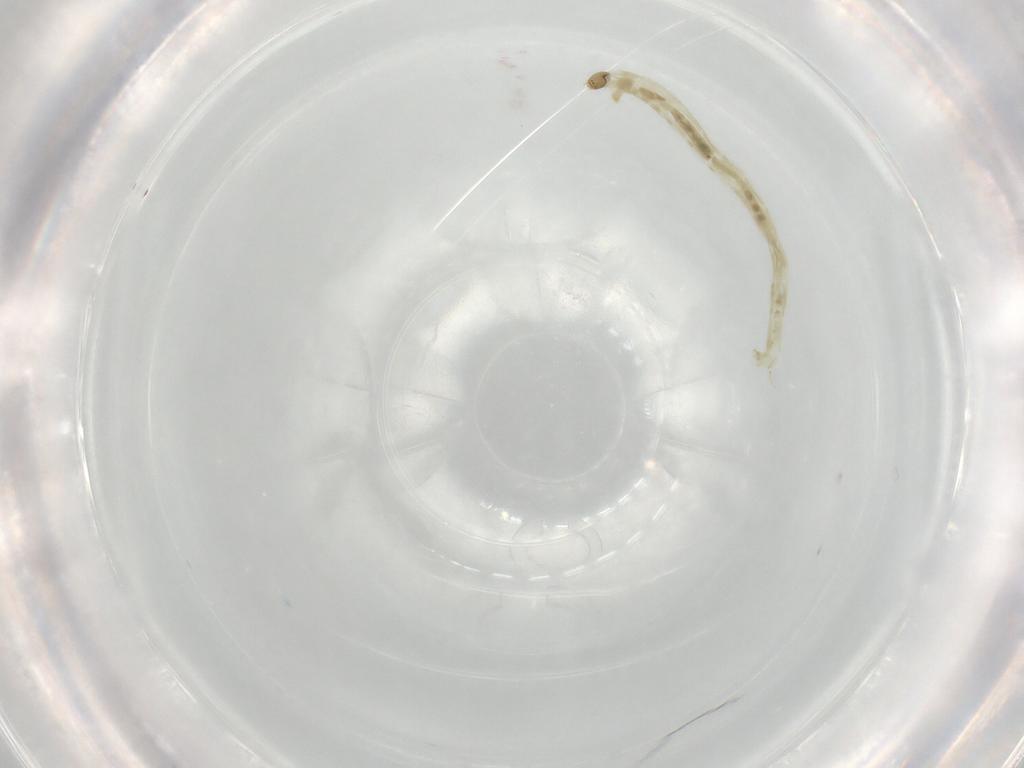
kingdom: Animalia
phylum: Arthropoda
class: Insecta
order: Diptera
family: Chironomidae
